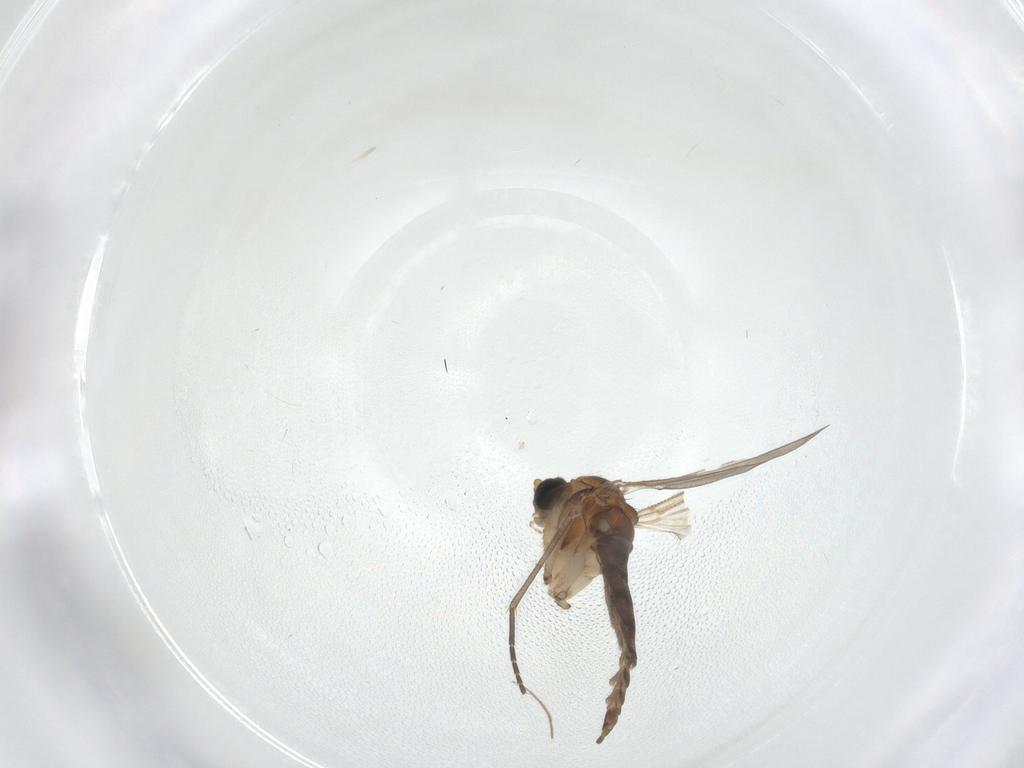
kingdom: Animalia
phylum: Arthropoda
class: Insecta
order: Diptera
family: Sciaridae
